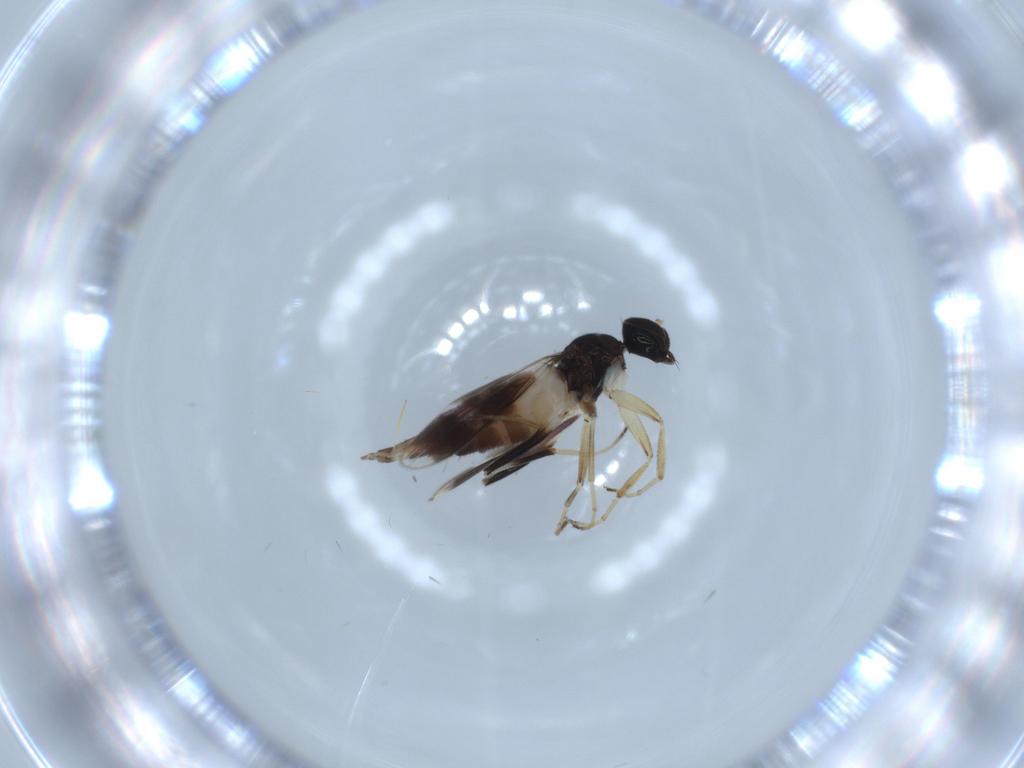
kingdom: Animalia
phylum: Arthropoda
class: Insecta
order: Diptera
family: Hybotidae
